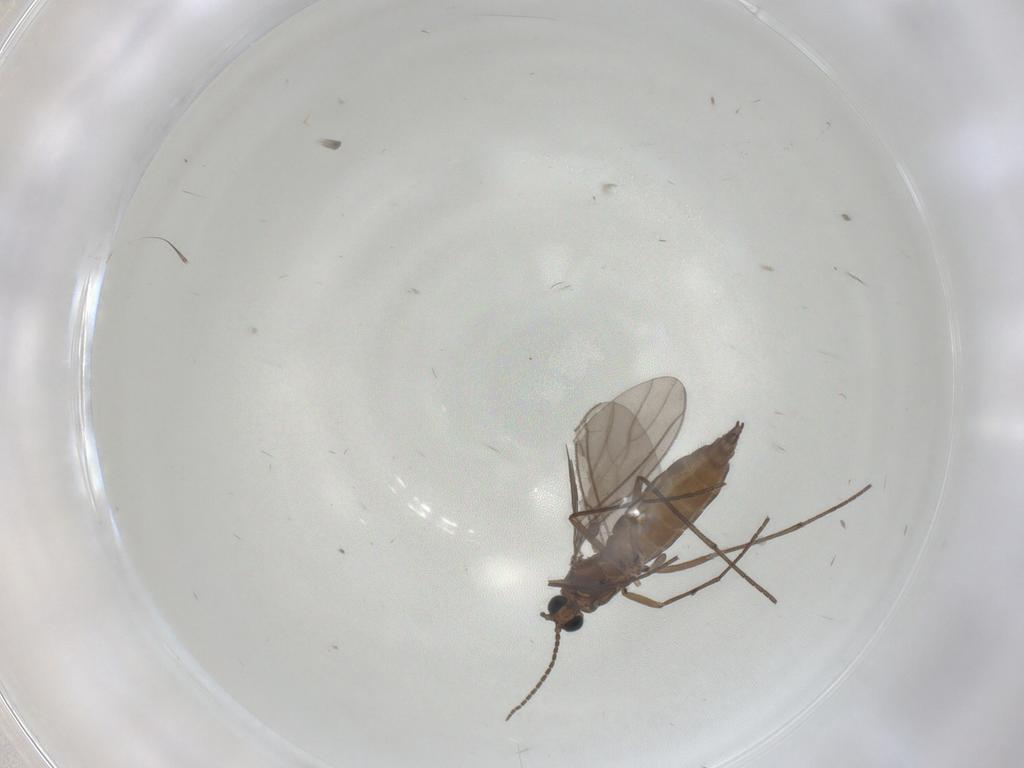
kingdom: Animalia
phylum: Arthropoda
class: Insecta
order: Diptera
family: Sciaridae
